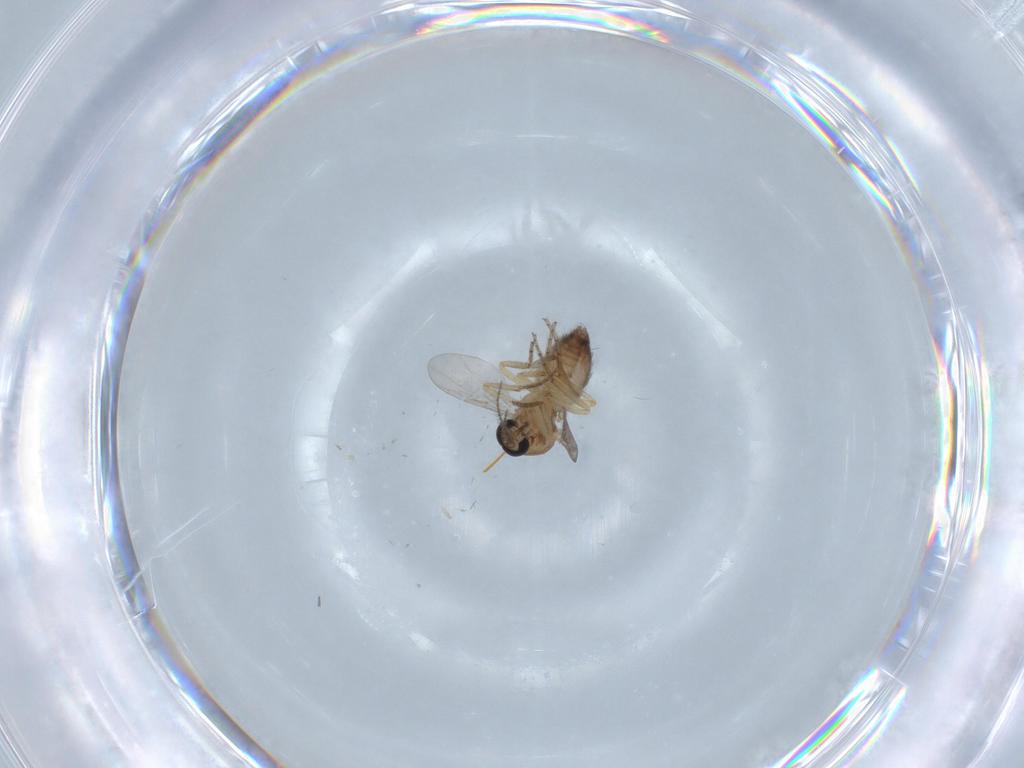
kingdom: Animalia
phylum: Arthropoda
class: Insecta
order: Diptera
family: Ceratopogonidae
